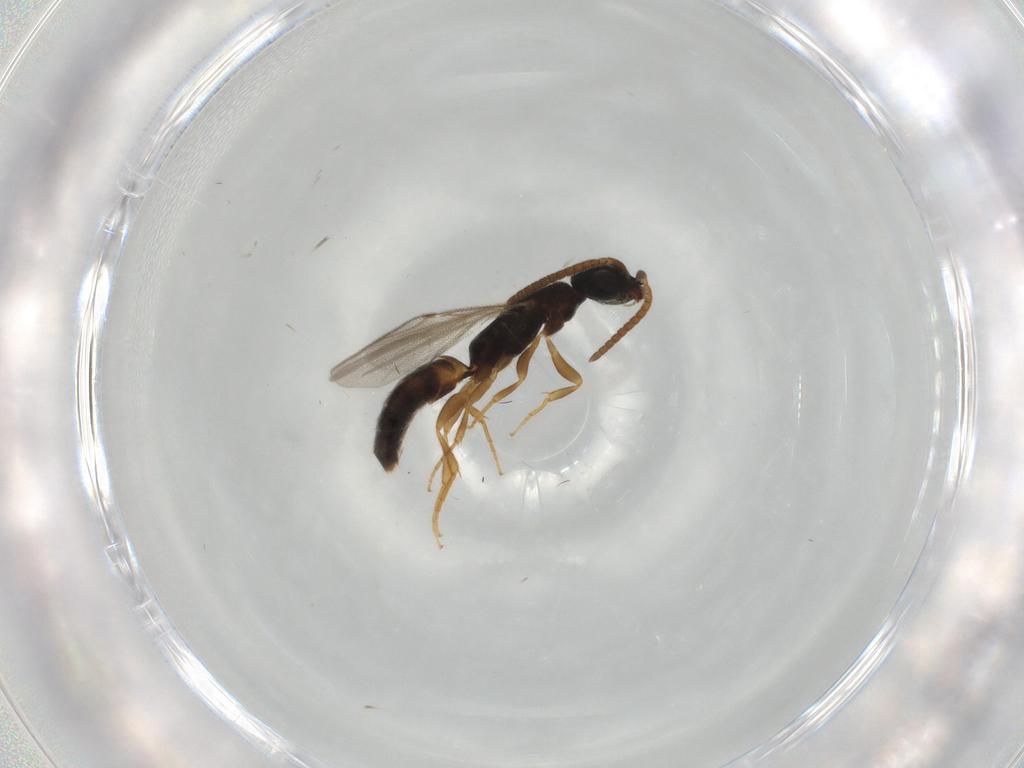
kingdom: Animalia
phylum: Arthropoda
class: Insecta
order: Hymenoptera
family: Bethylidae
